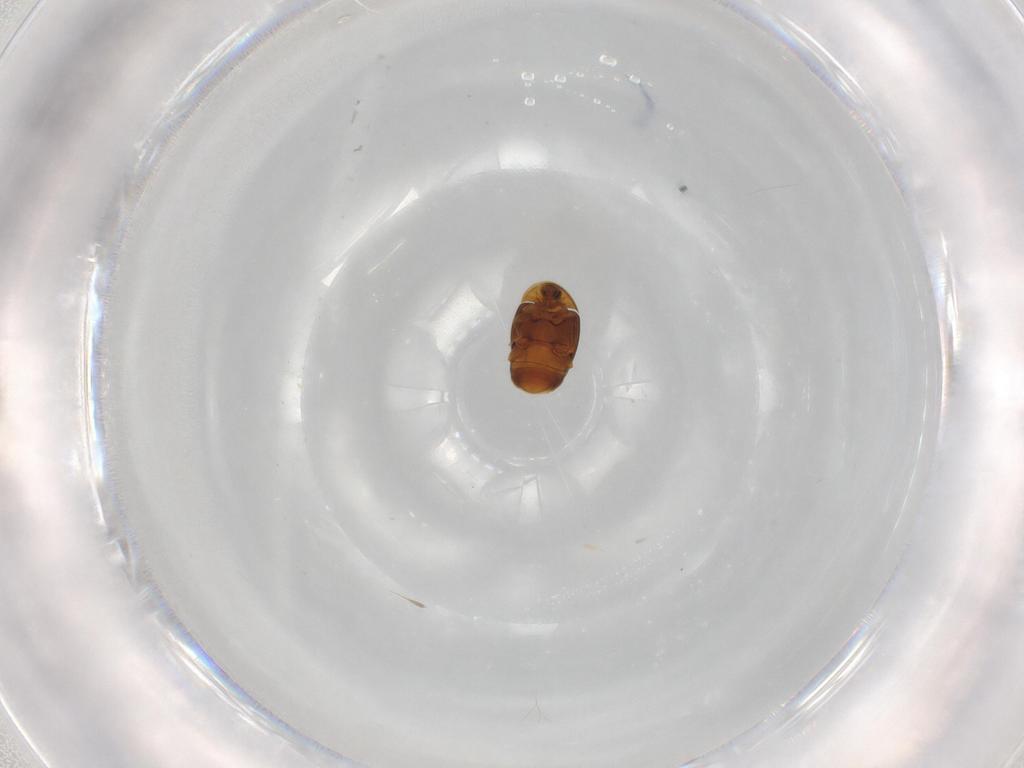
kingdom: Animalia
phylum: Arthropoda
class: Insecta
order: Coleoptera
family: Corylophidae
